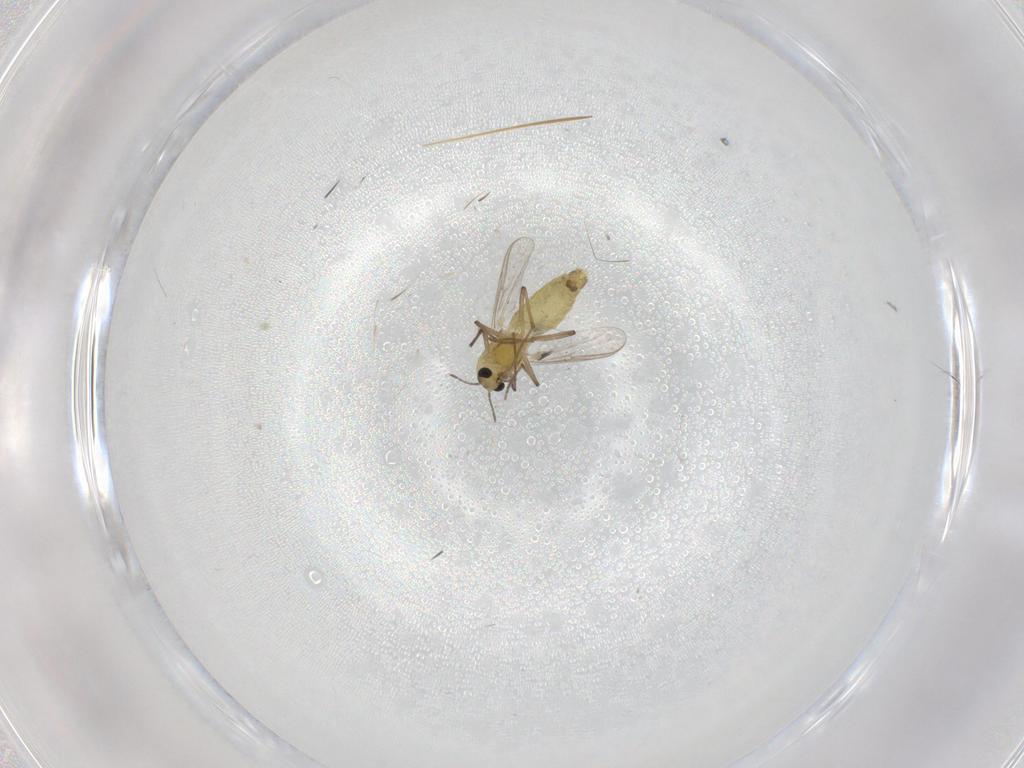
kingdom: Animalia
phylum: Arthropoda
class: Insecta
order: Diptera
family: Chironomidae
